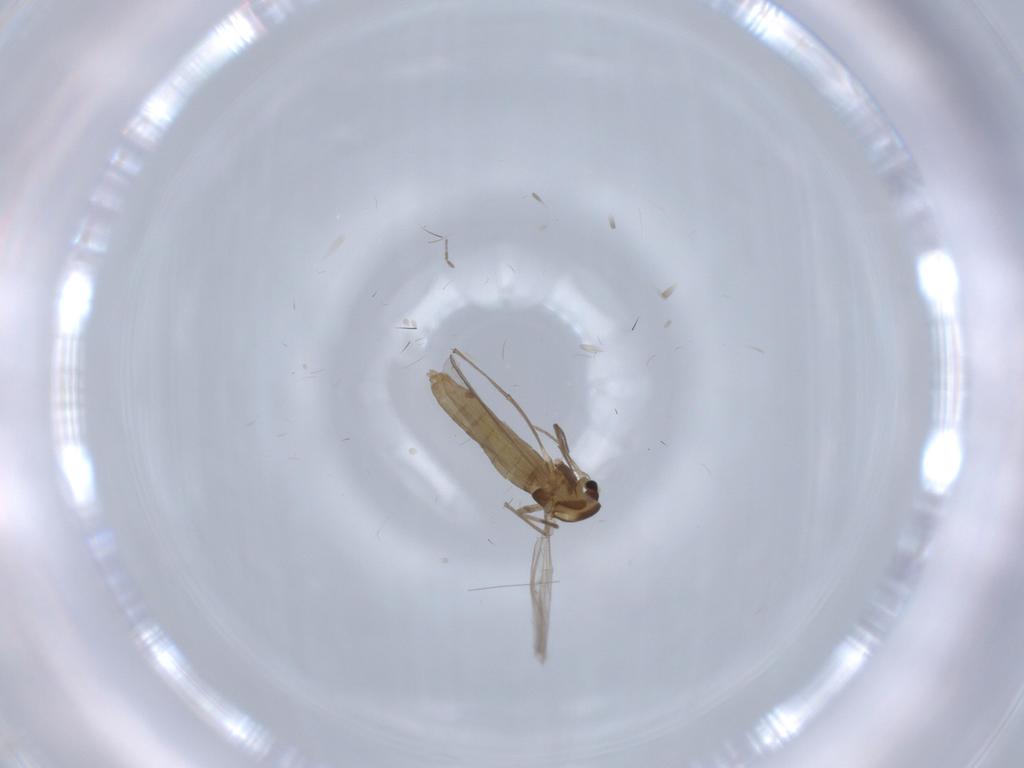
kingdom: Animalia
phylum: Arthropoda
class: Insecta
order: Diptera
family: Chironomidae
